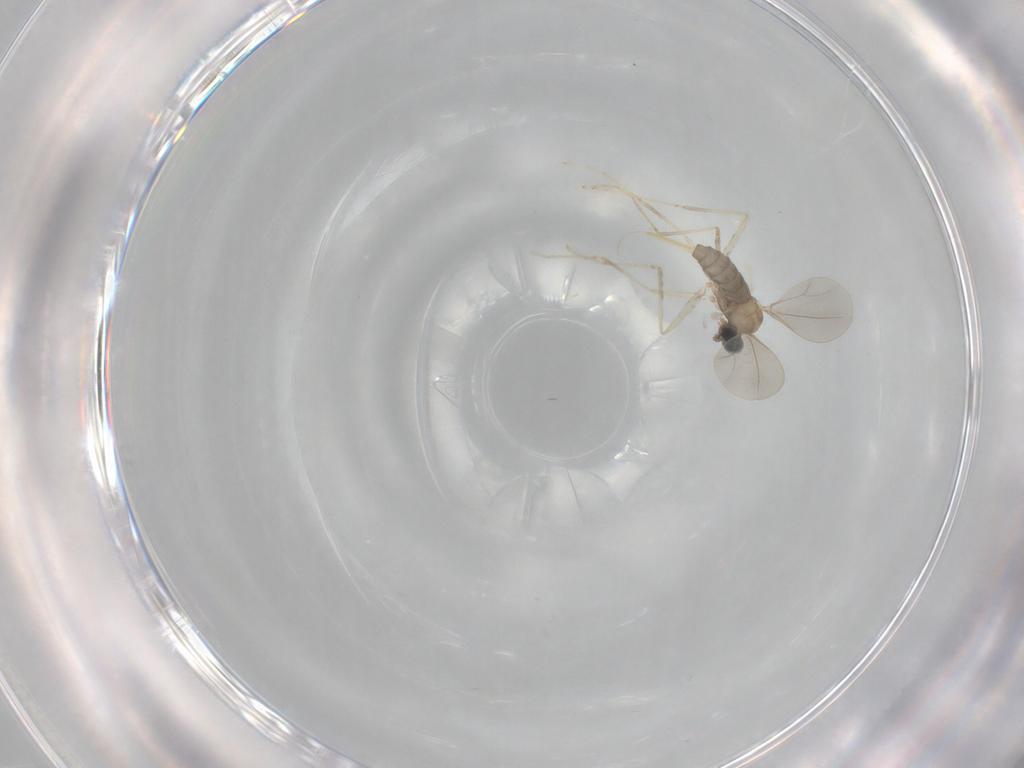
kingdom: Animalia
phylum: Arthropoda
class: Insecta
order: Diptera
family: Cecidomyiidae
